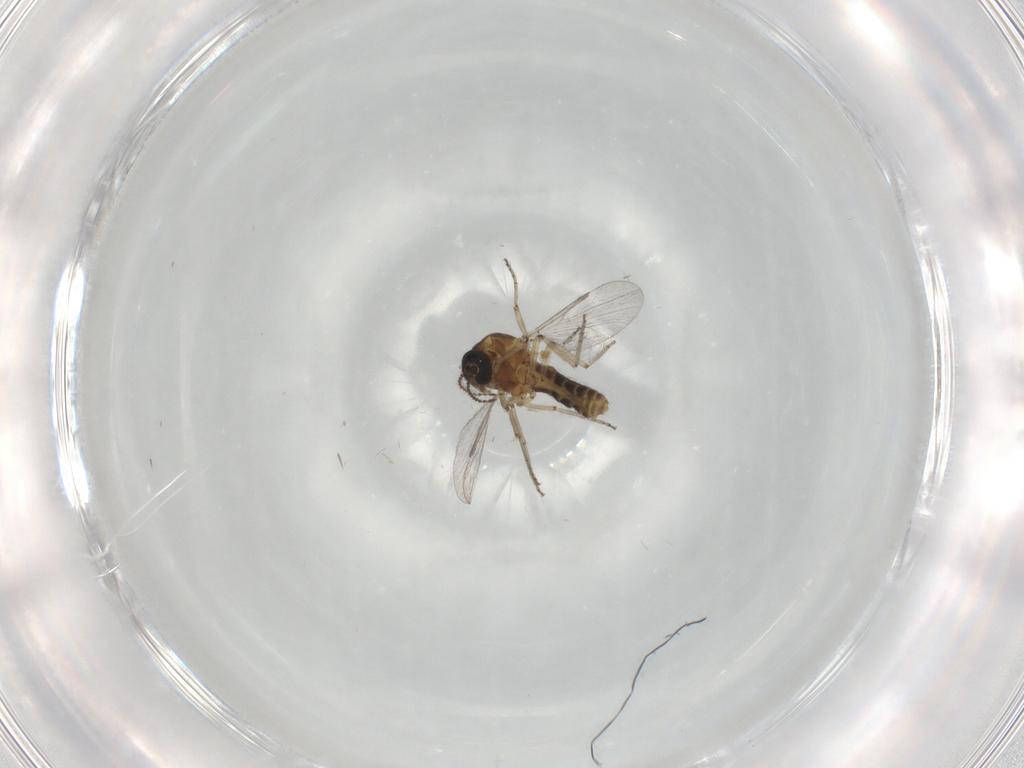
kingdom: Animalia
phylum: Arthropoda
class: Insecta
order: Diptera
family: Ceratopogonidae
